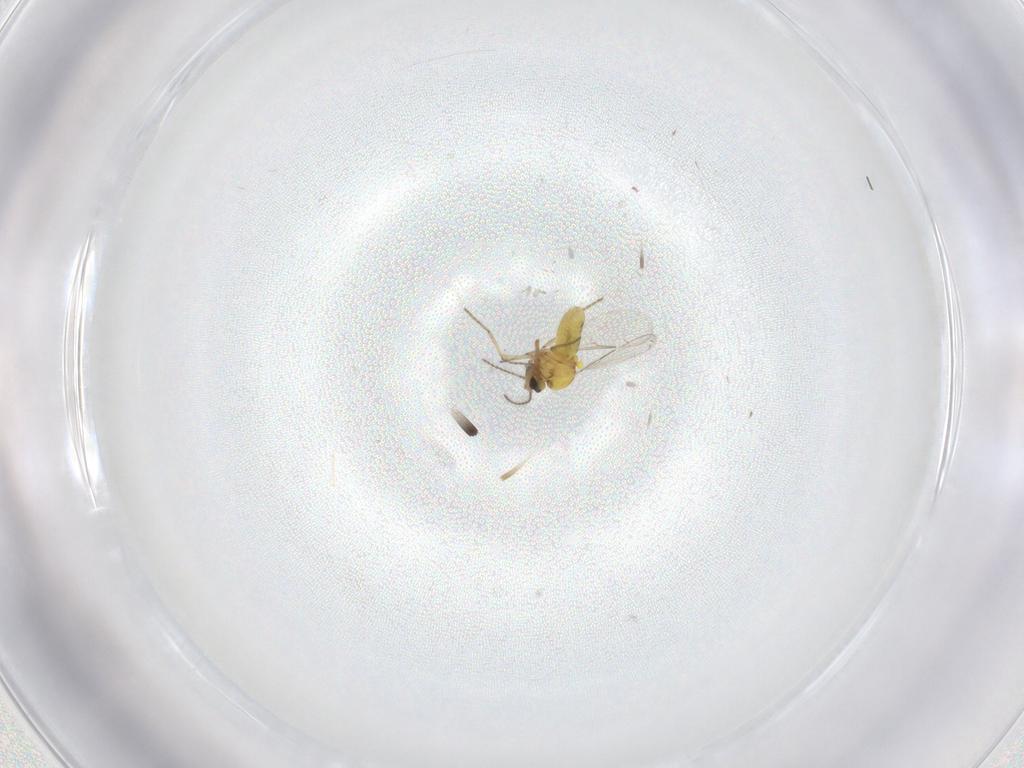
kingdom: Animalia
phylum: Arthropoda
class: Insecta
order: Diptera
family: Ceratopogonidae
